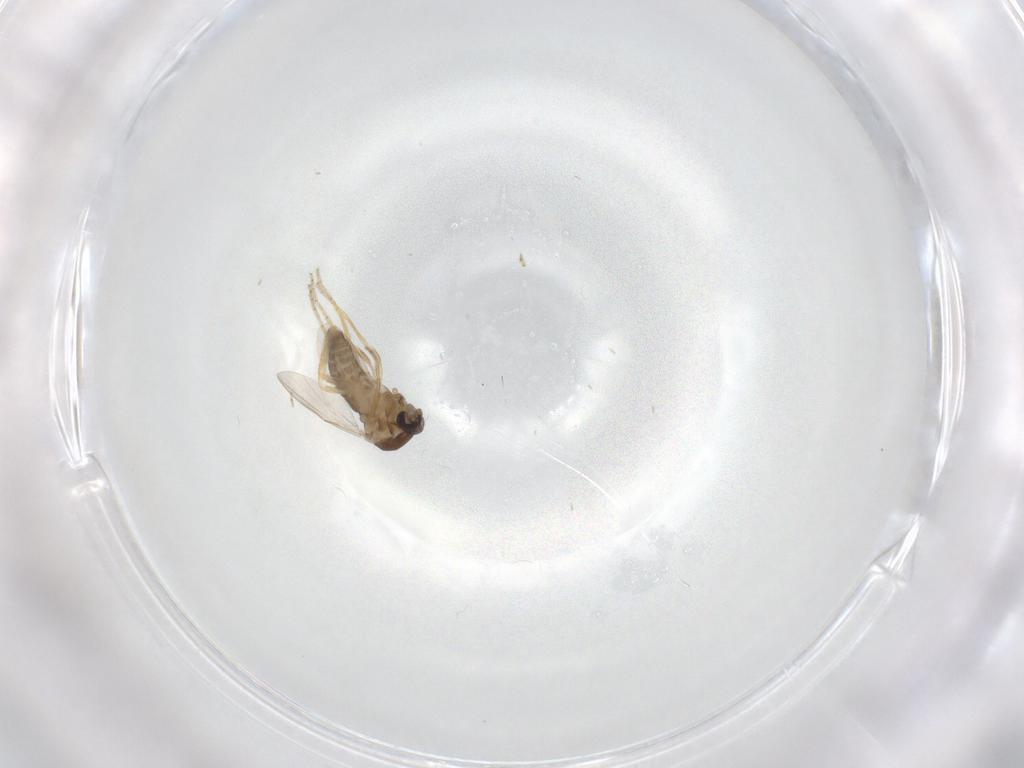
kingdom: Animalia
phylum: Arthropoda
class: Insecta
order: Diptera
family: Ceratopogonidae
